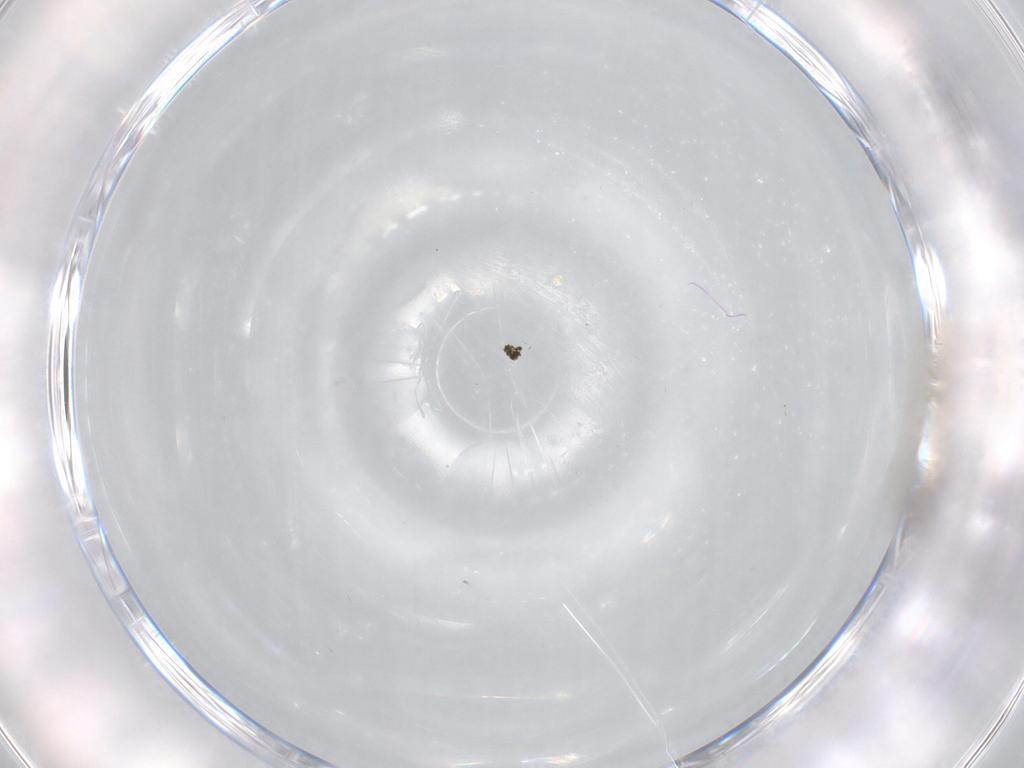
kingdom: Animalia
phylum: Arthropoda
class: Insecta
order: Diptera
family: Cecidomyiidae
